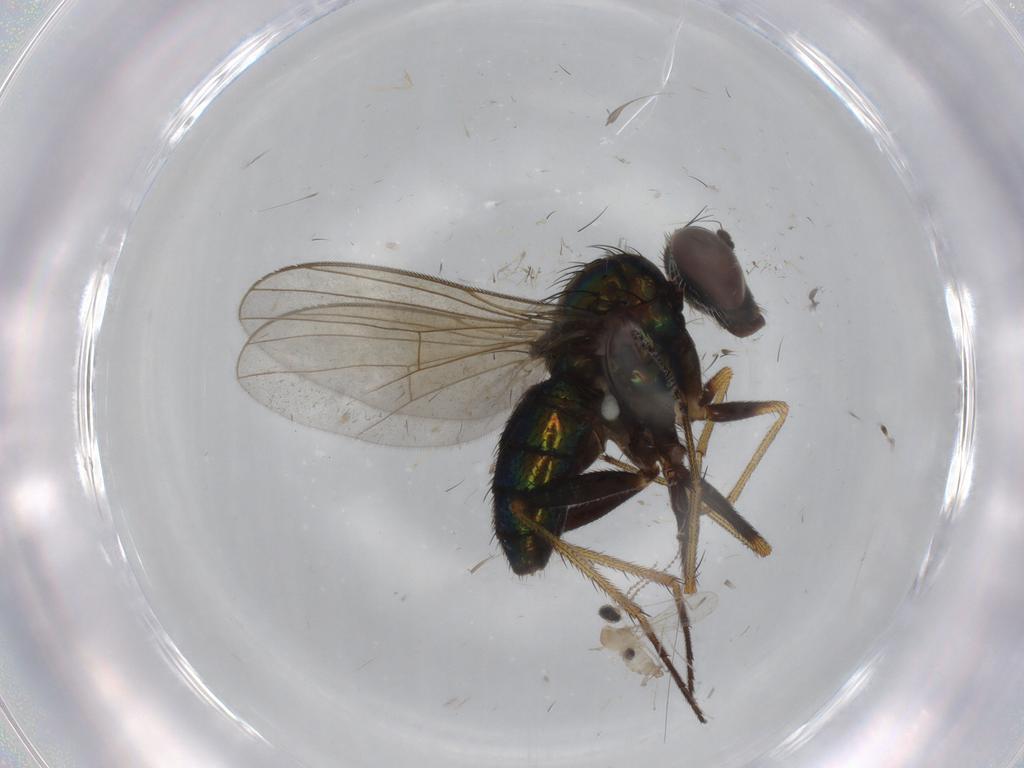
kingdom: Animalia
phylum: Arthropoda
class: Insecta
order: Diptera
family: Dolichopodidae
